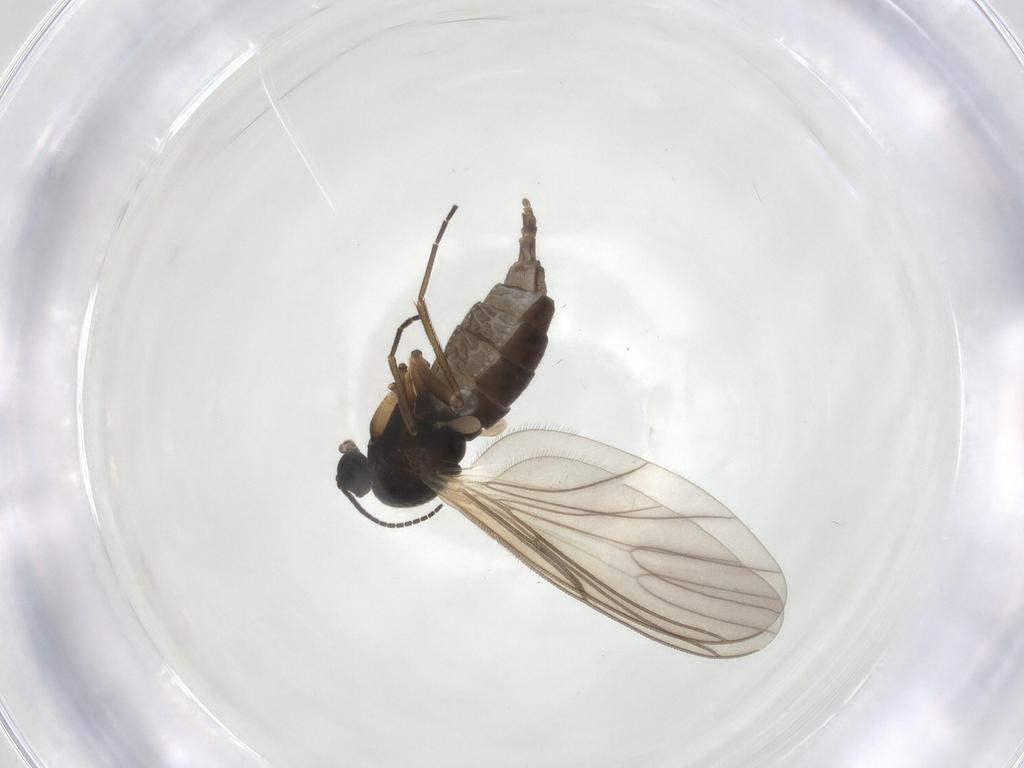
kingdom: Animalia
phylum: Arthropoda
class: Insecta
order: Diptera
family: Sciaridae
